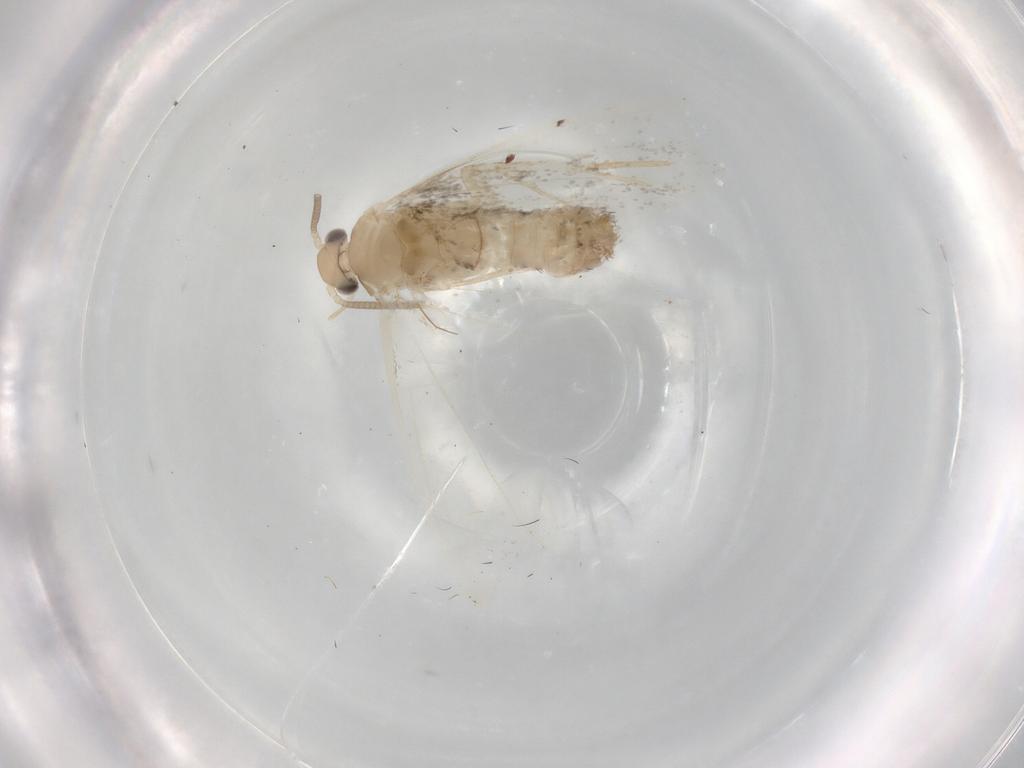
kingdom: Animalia
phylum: Arthropoda
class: Insecta
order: Lepidoptera
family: Dryadaulidae
